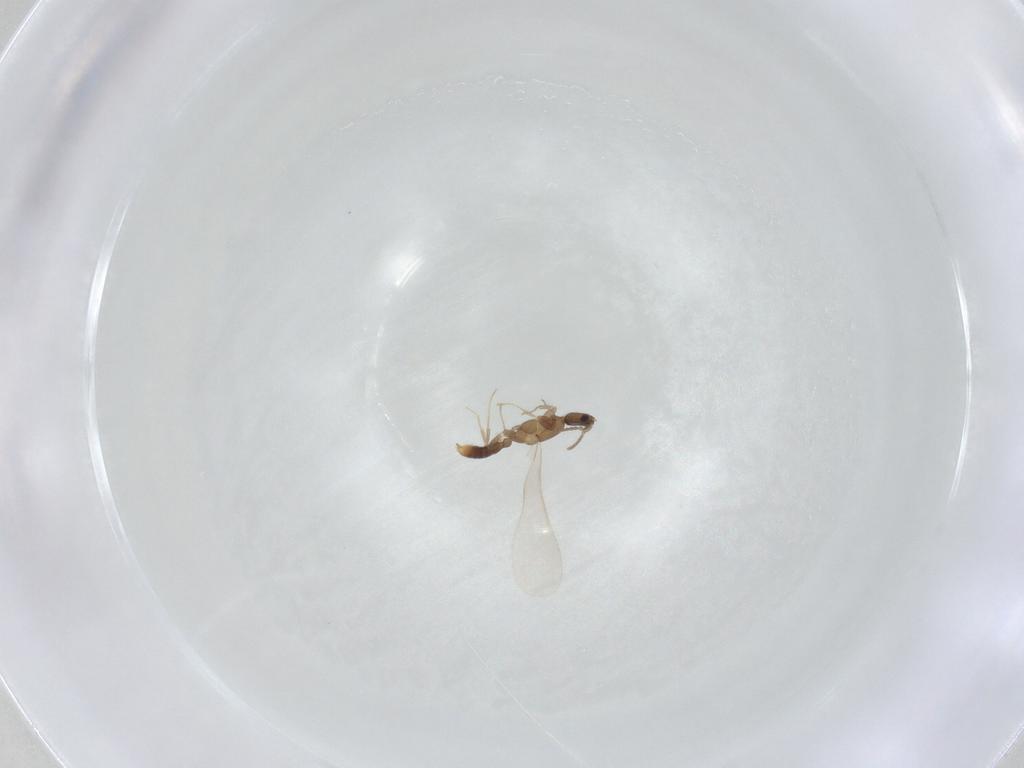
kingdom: Animalia
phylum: Arthropoda
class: Insecta
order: Hymenoptera
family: Formicidae
